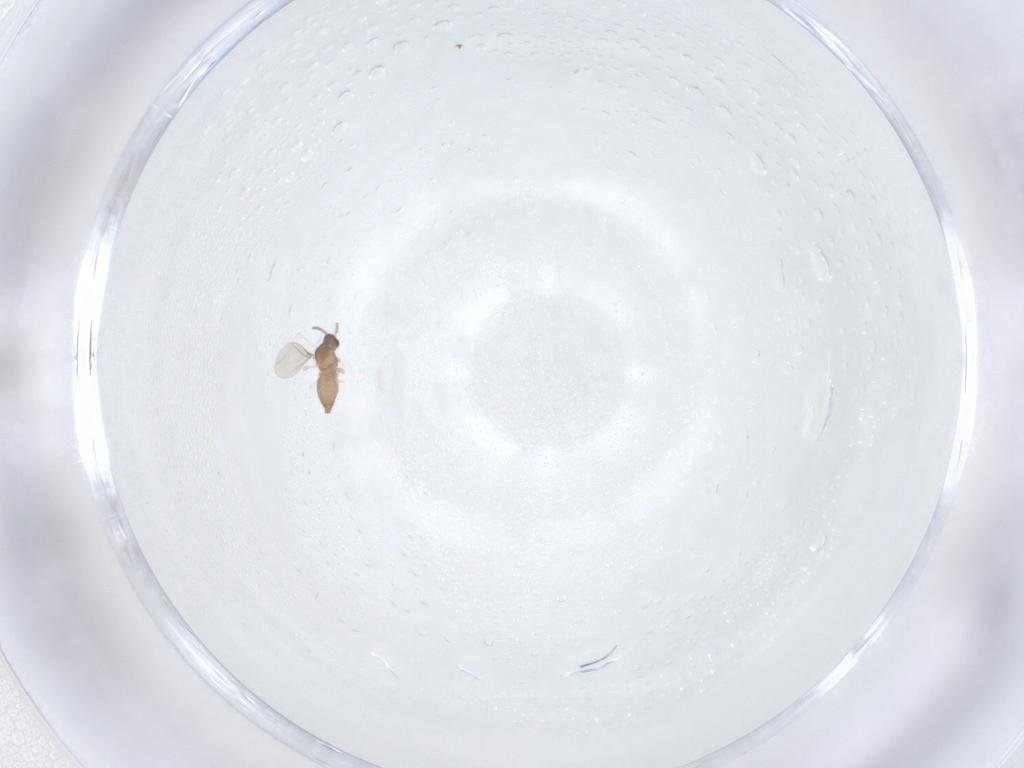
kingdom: Animalia
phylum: Arthropoda
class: Insecta
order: Diptera
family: Cecidomyiidae
